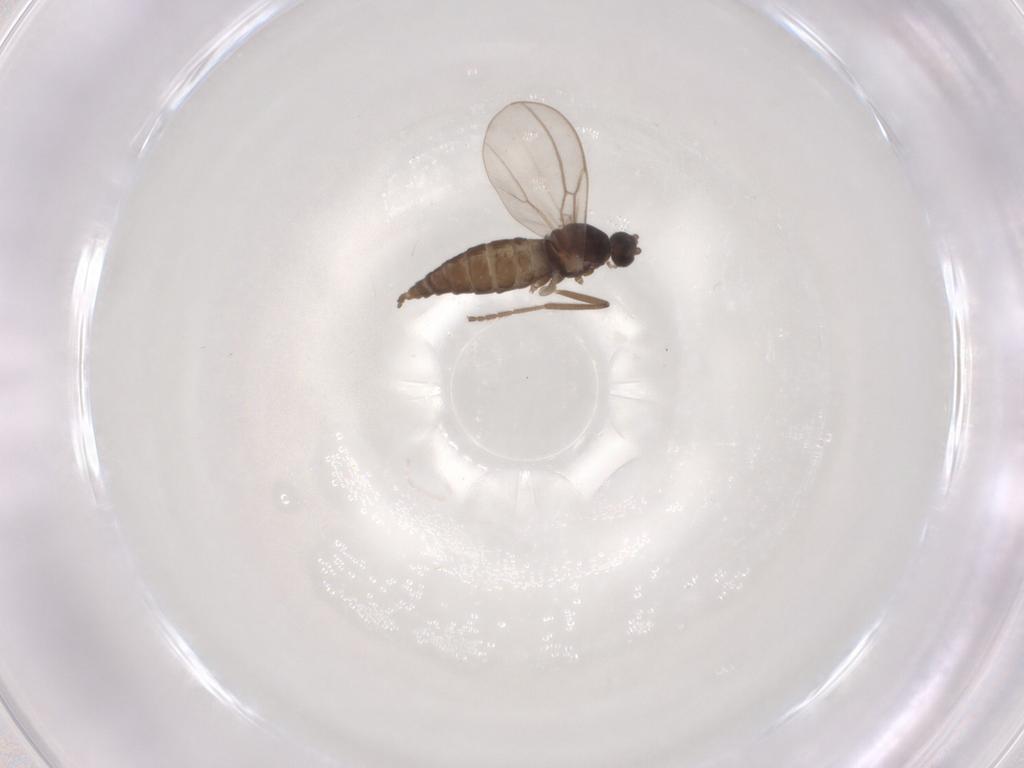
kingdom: Animalia
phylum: Arthropoda
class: Insecta
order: Diptera
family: Cecidomyiidae
